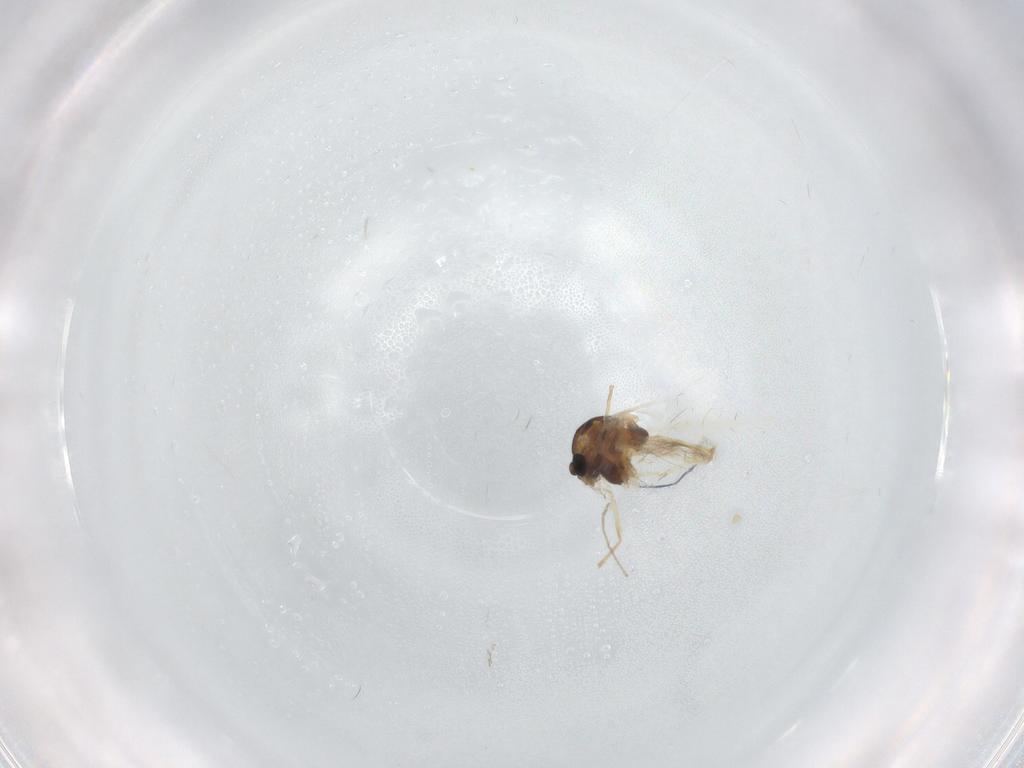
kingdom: Animalia
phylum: Arthropoda
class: Insecta
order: Diptera
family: Chironomidae
